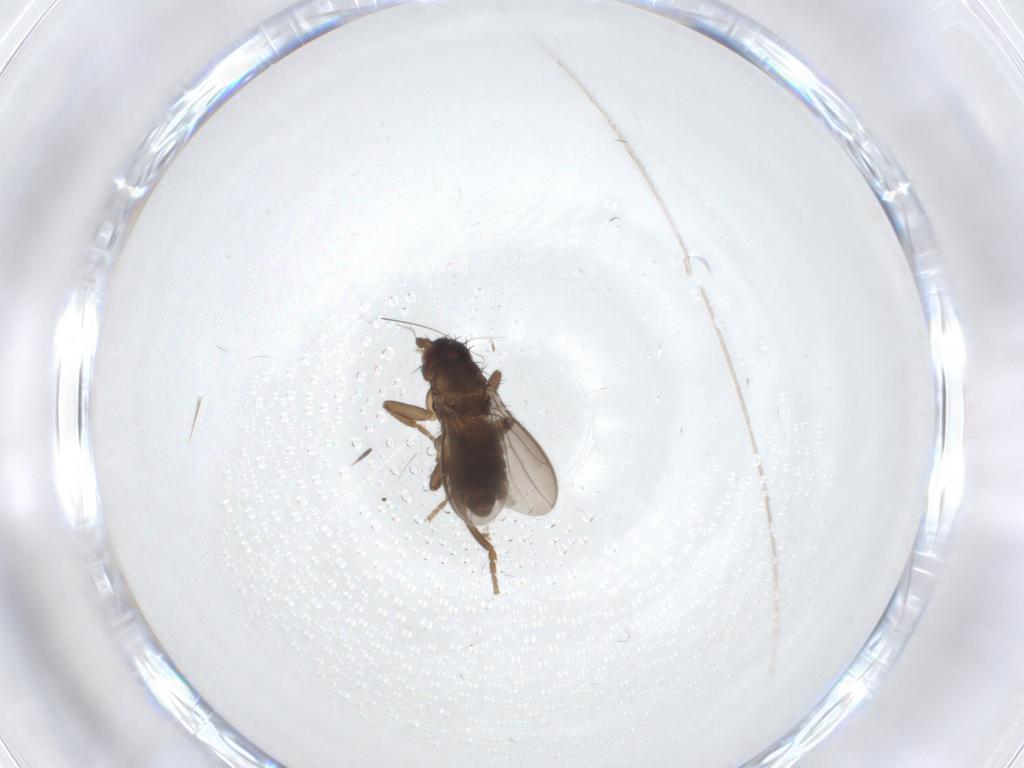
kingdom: Animalia
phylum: Arthropoda
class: Insecta
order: Diptera
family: Sphaeroceridae
